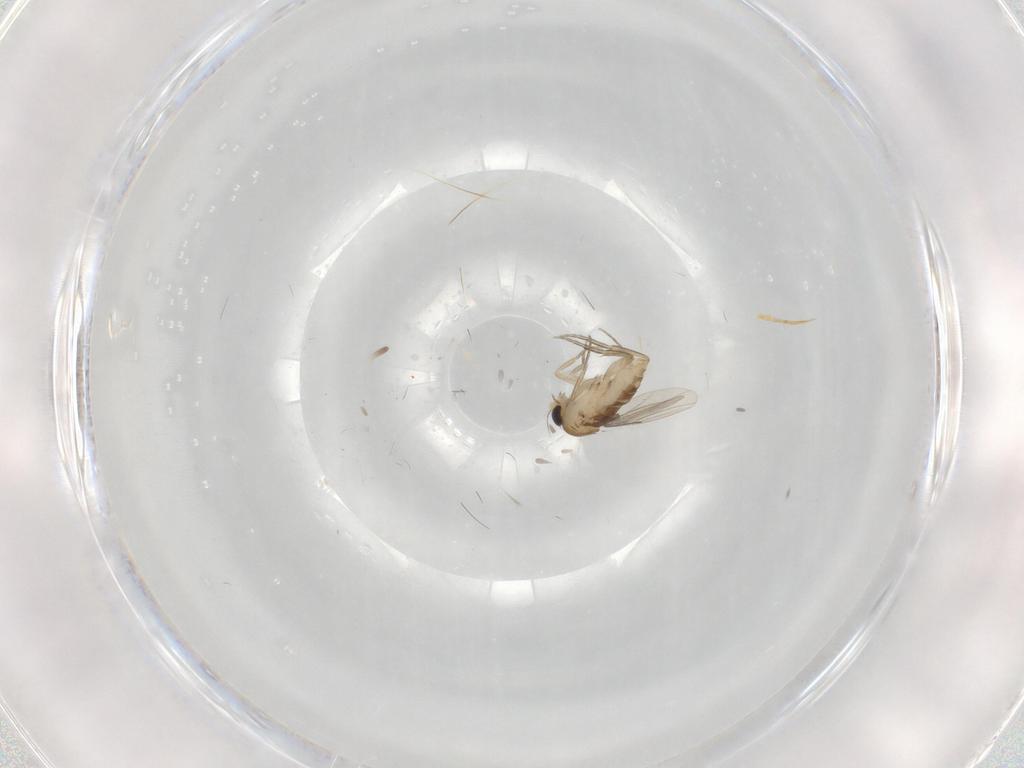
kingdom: Animalia
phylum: Arthropoda
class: Insecta
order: Diptera
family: Phoridae
